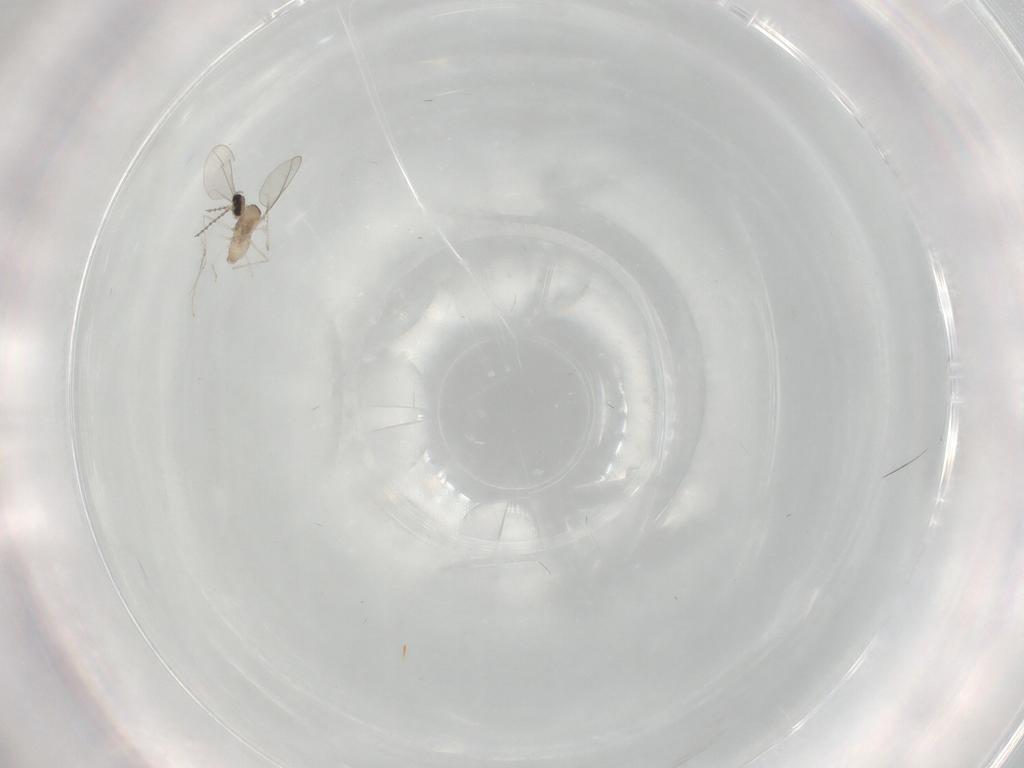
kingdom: Animalia
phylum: Arthropoda
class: Insecta
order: Diptera
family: Cecidomyiidae
